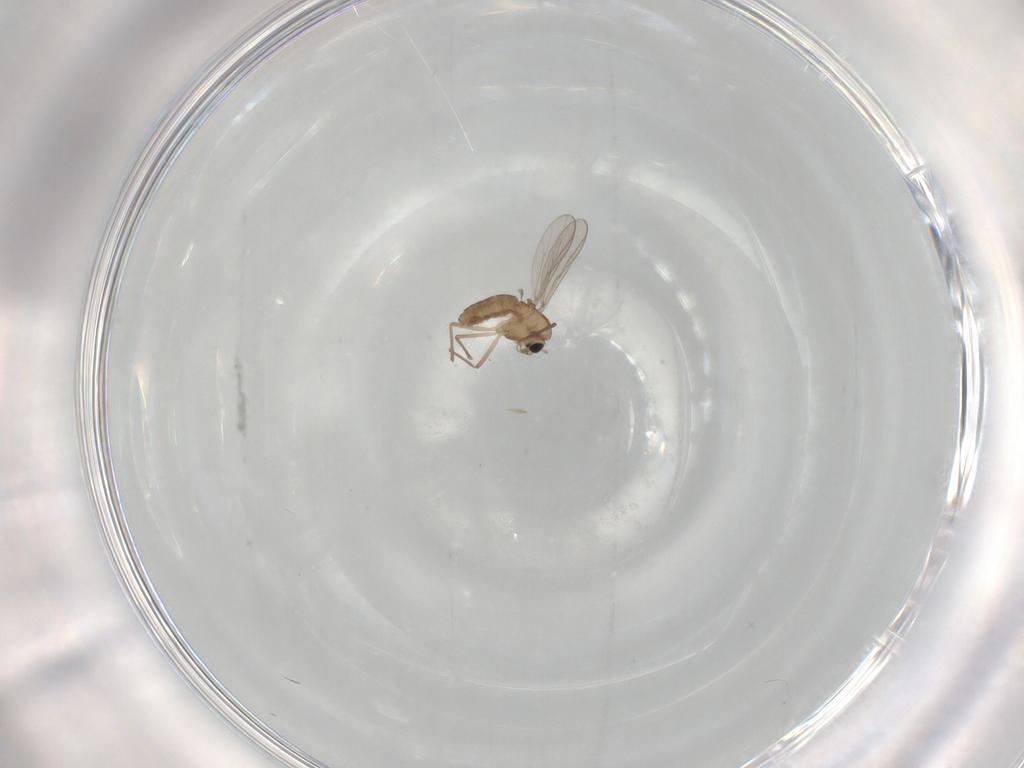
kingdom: Animalia
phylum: Arthropoda
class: Insecta
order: Diptera
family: Chironomidae
